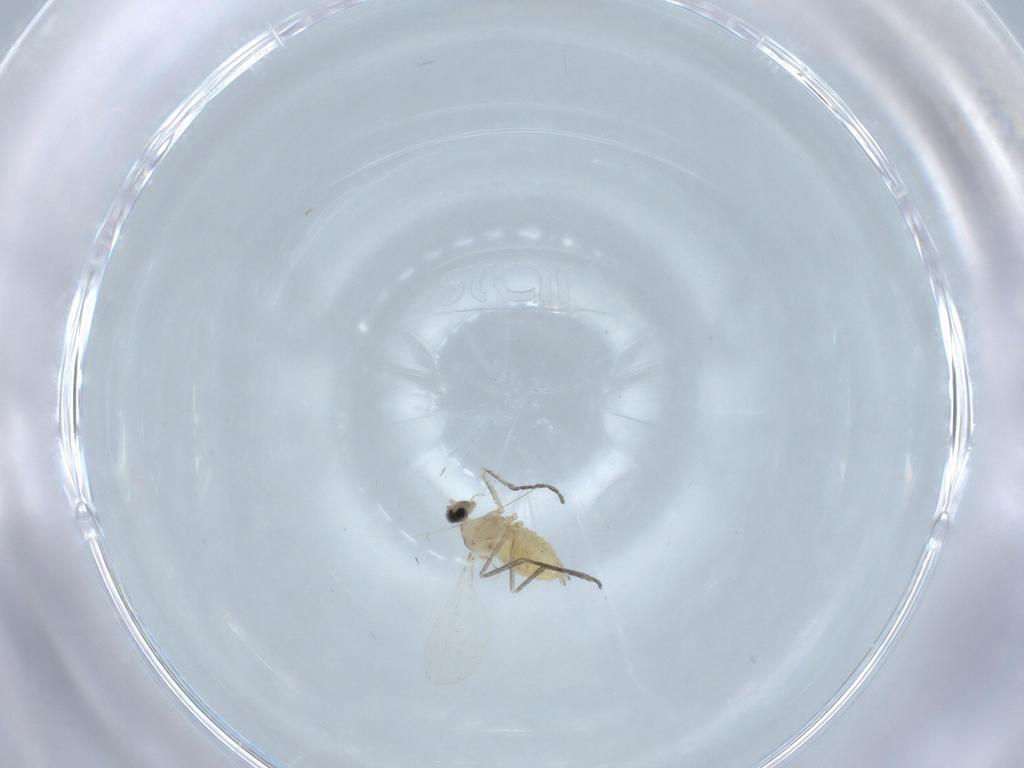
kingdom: Animalia
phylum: Arthropoda
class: Insecta
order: Diptera
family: Cecidomyiidae
